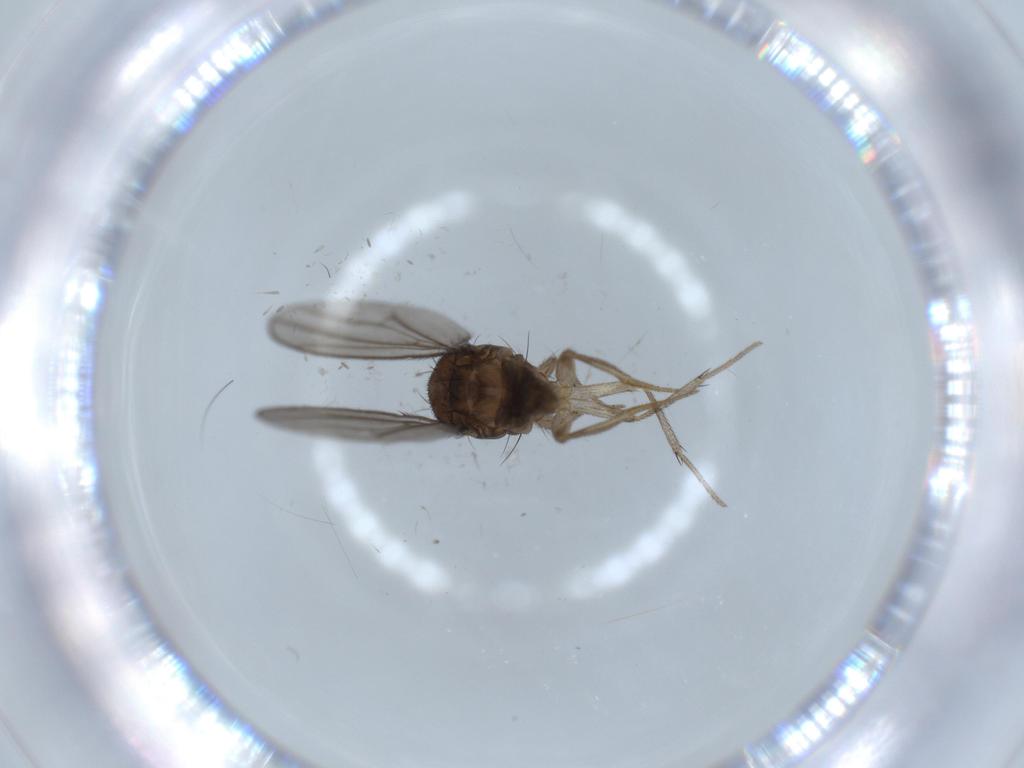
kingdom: Animalia
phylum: Arthropoda
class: Insecta
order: Diptera
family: Drosophilidae
